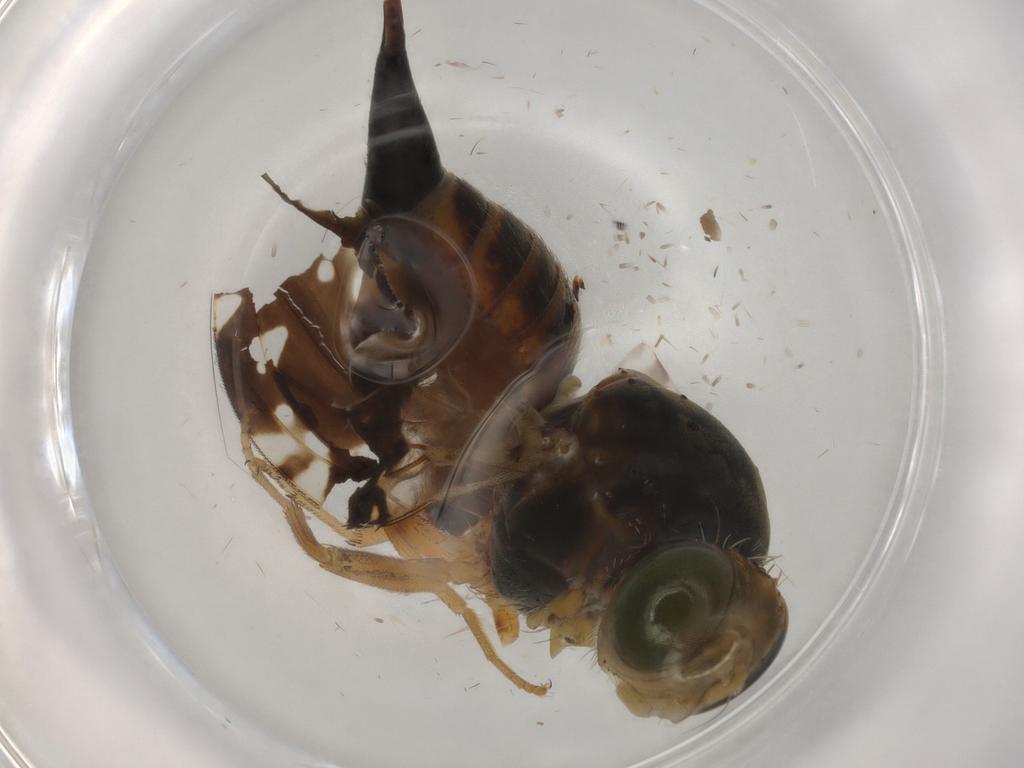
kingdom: Animalia
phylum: Arthropoda
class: Insecta
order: Diptera
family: Tephritidae
